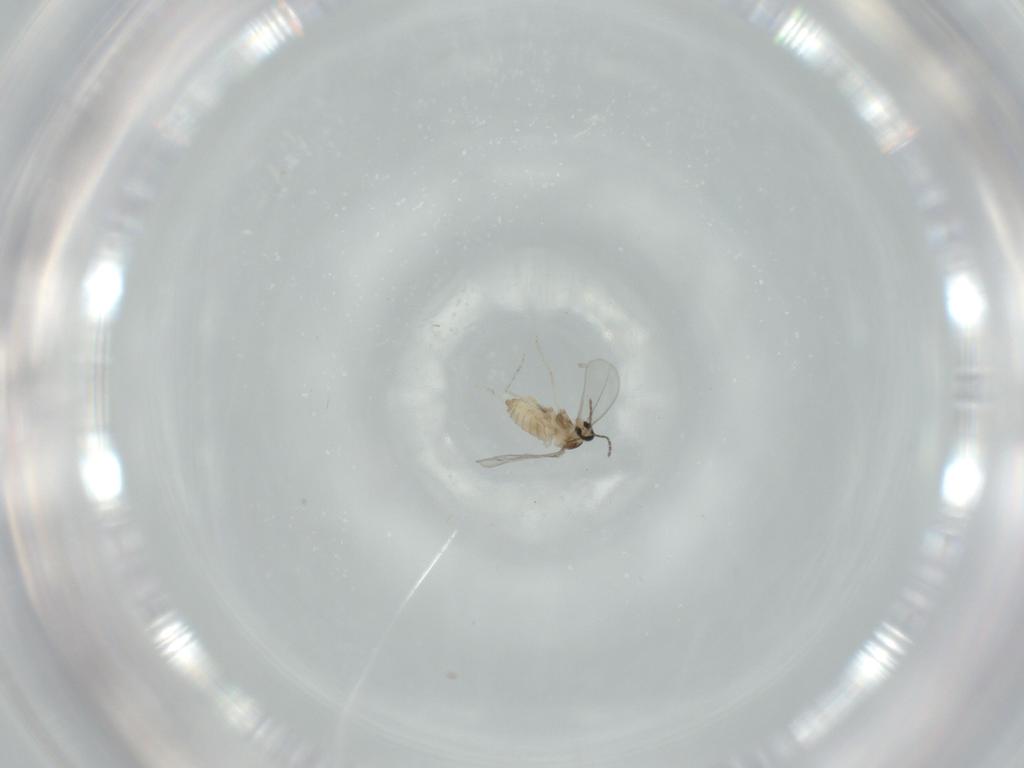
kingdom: Animalia
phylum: Arthropoda
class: Insecta
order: Diptera
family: Cecidomyiidae
